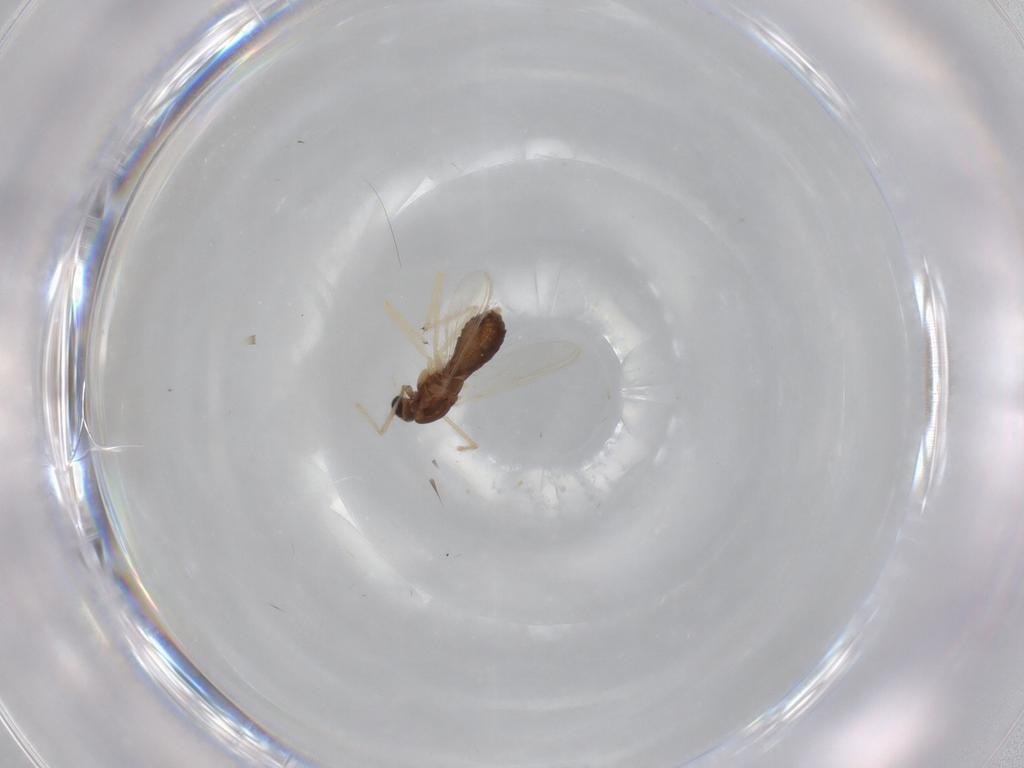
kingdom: Animalia
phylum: Arthropoda
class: Insecta
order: Diptera
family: Chironomidae
